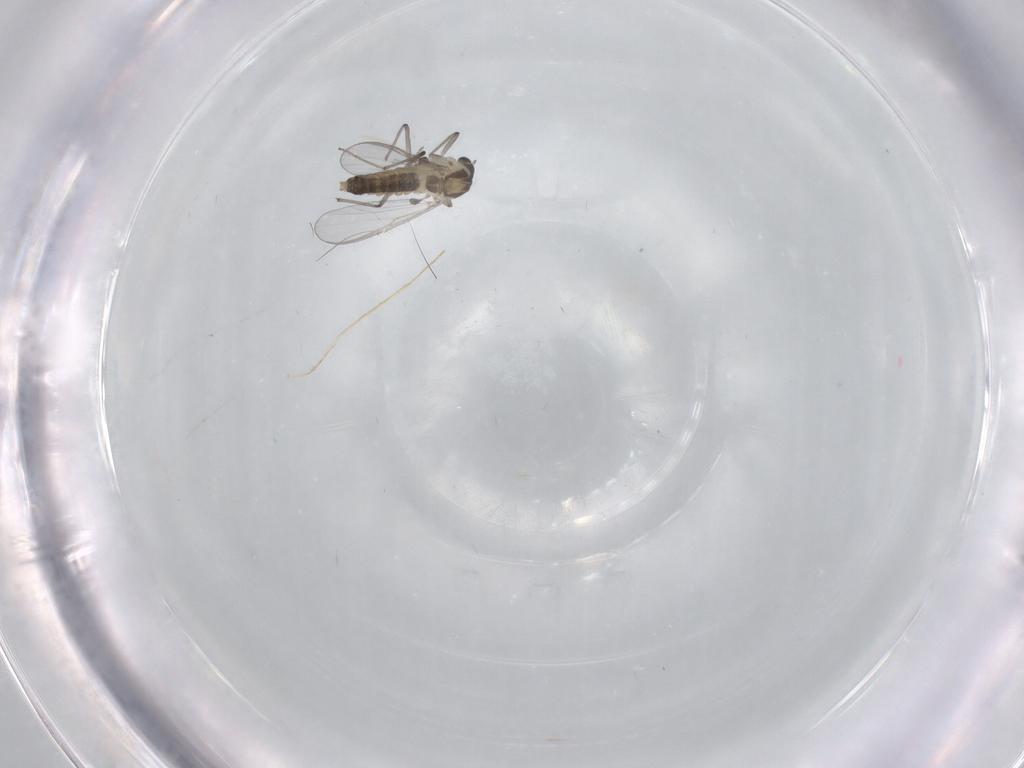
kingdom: Animalia
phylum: Arthropoda
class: Insecta
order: Diptera
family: Chironomidae
